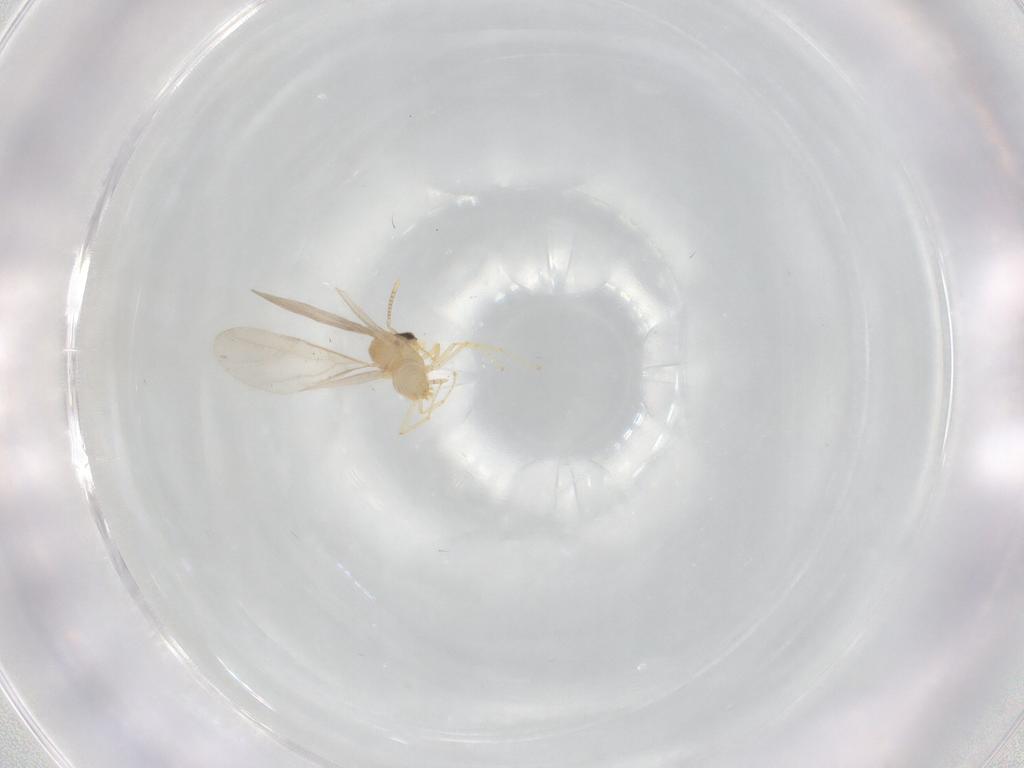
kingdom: Animalia
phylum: Arthropoda
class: Insecta
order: Hymenoptera
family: Formicidae
